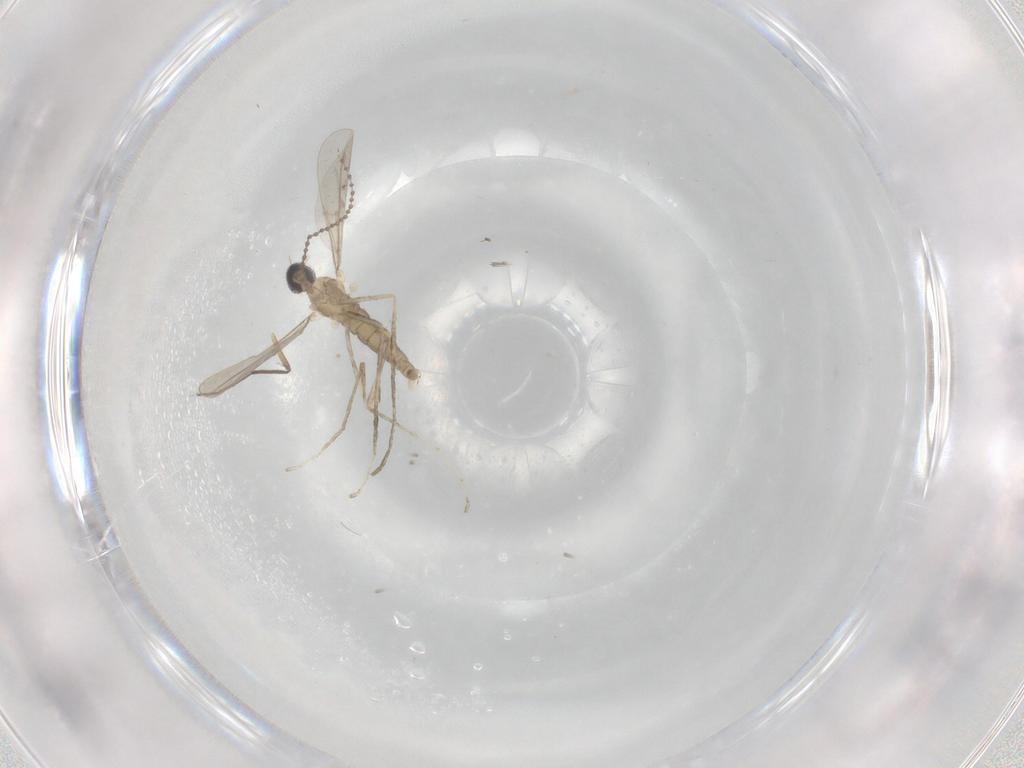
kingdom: Animalia
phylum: Arthropoda
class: Insecta
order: Diptera
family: Cecidomyiidae
